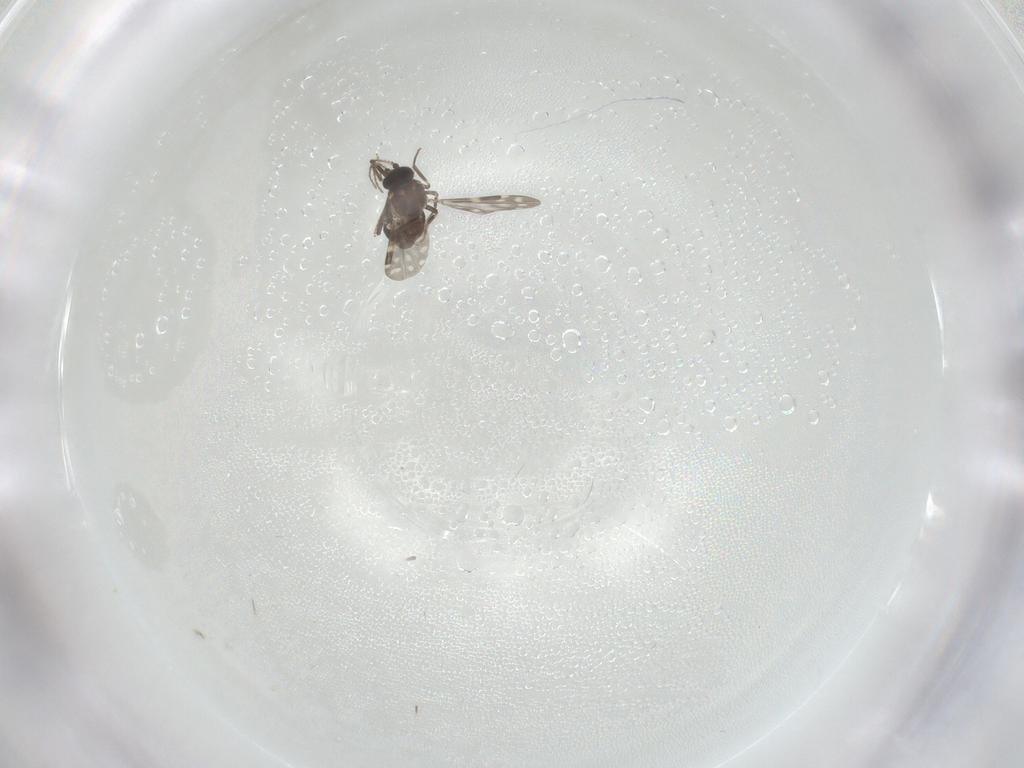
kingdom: Animalia
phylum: Arthropoda
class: Insecta
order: Diptera
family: Ceratopogonidae
